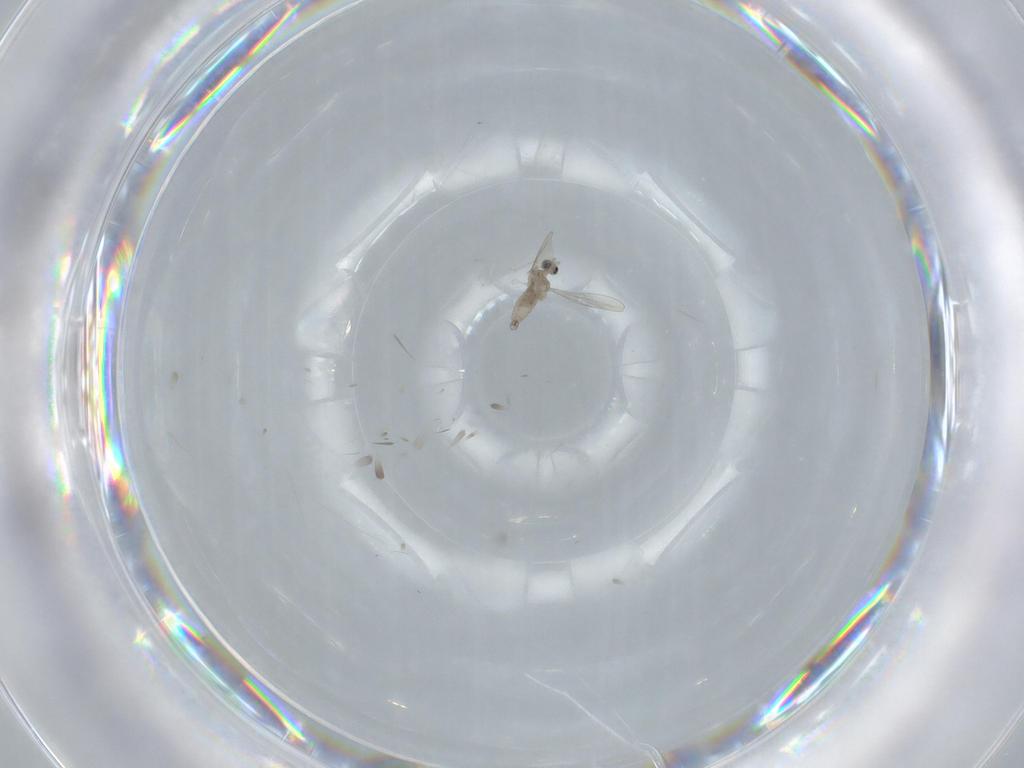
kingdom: Animalia
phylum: Arthropoda
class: Insecta
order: Diptera
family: Cecidomyiidae
